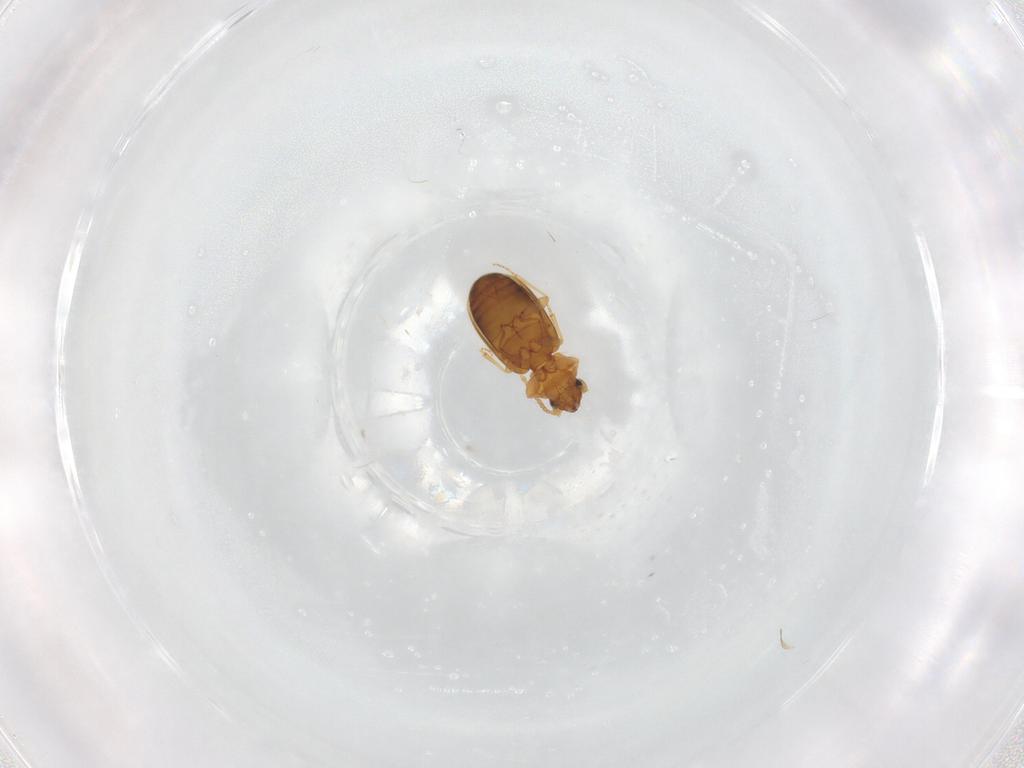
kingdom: Animalia
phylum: Arthropoda
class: Insecta
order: Coleoptera
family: Carabidae
